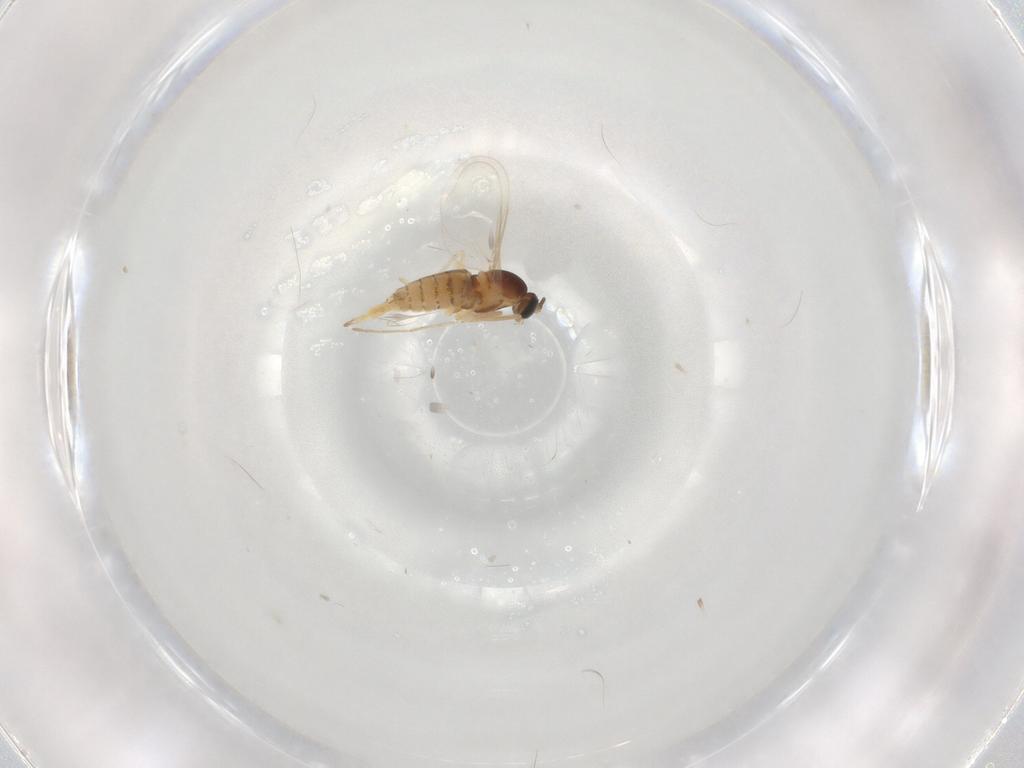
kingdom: Animalia
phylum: Arthropoda
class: Insecta
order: Diptera
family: Cecidomyiidae
